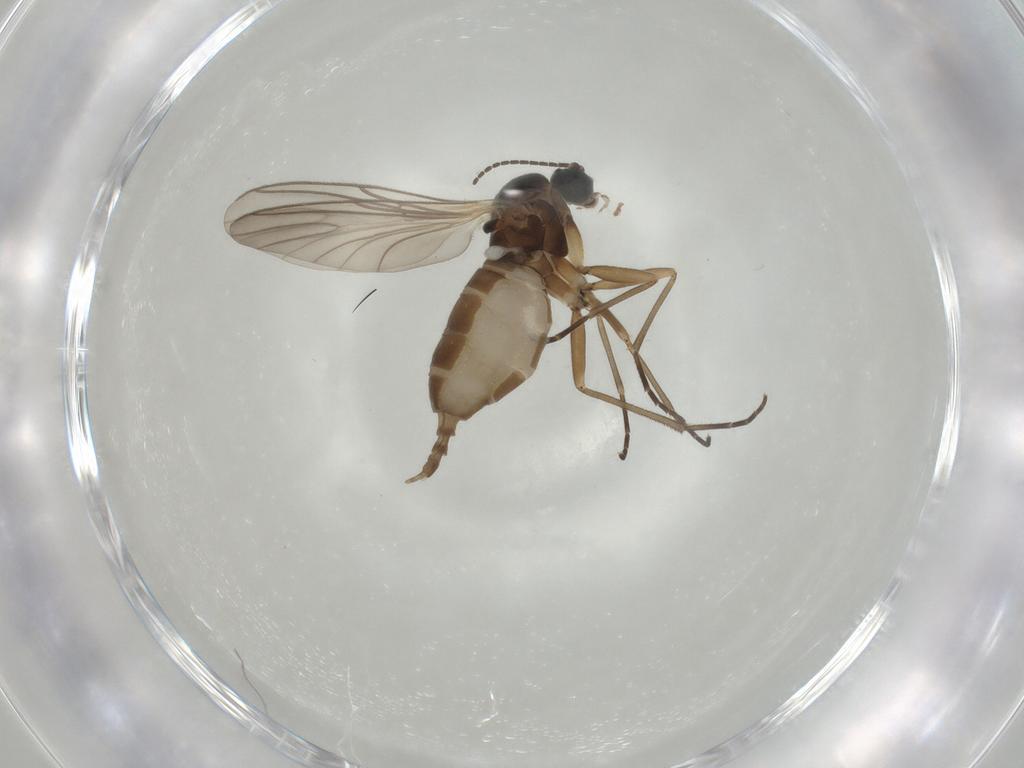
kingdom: Animalia
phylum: Arthropoda
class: Insecta
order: Diptera
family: Sciaridae
